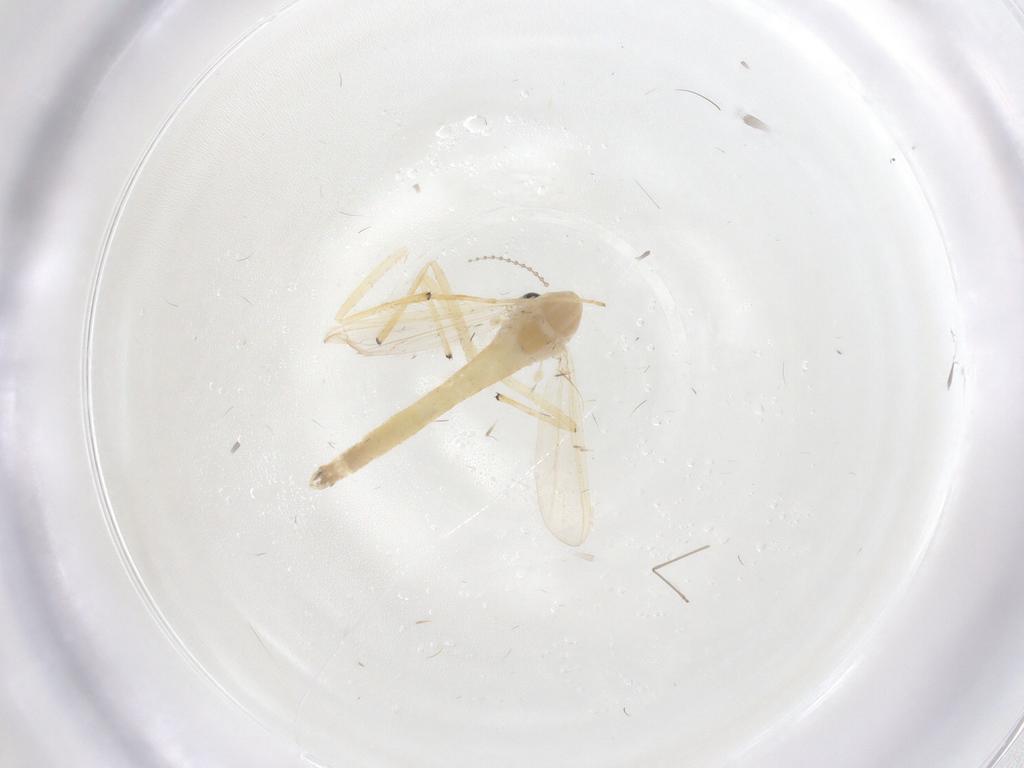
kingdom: Animalia
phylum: Arthropoda
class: Insecta
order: Diptera
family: Chironomidae
